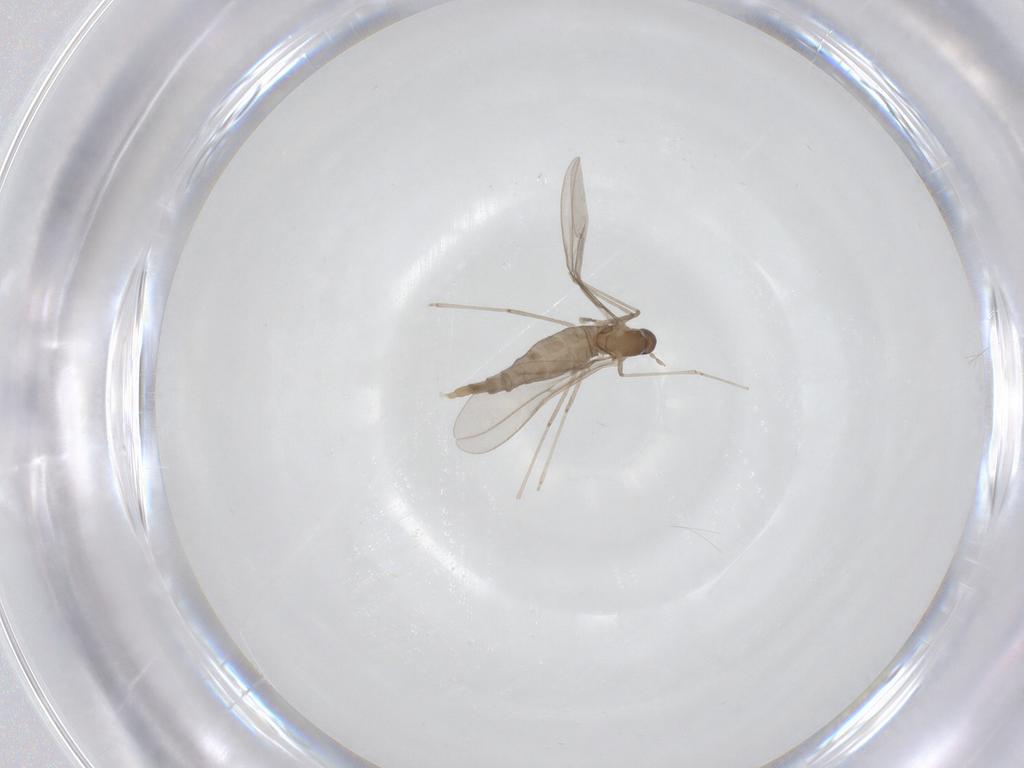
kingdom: Animalia
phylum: Arthropoda
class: Insecta
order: Diptera
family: Cecidomyiidae
